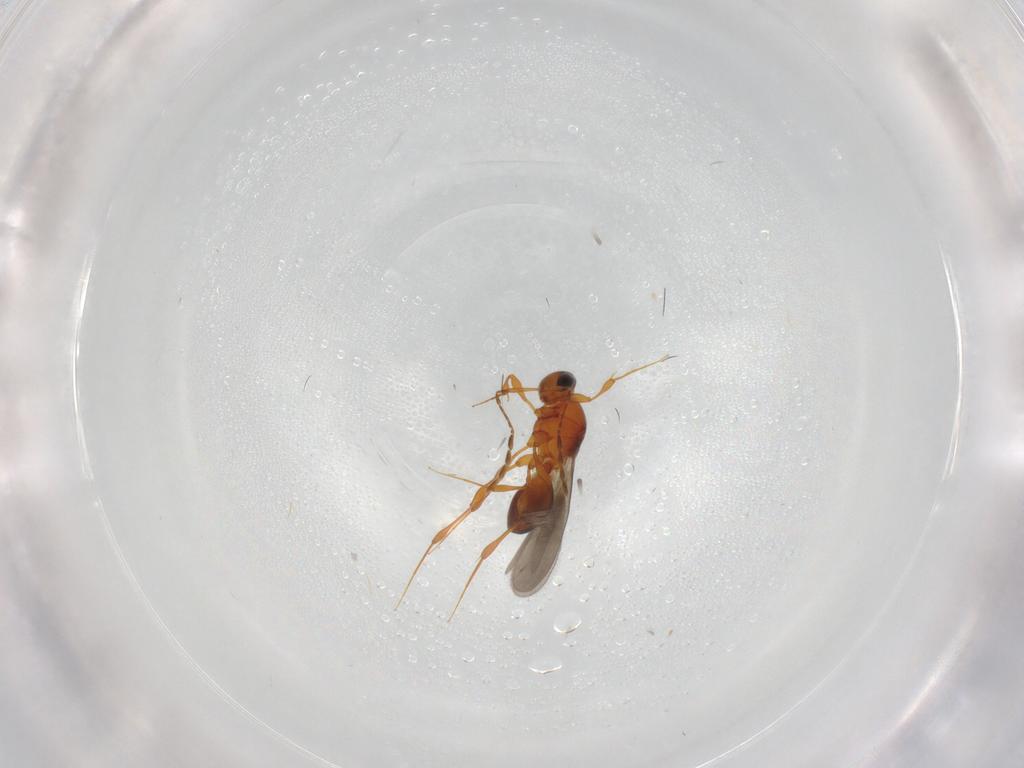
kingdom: Animalia
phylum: Arthropoda
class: Insecta
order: Hymenoptera
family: Platygastridae
